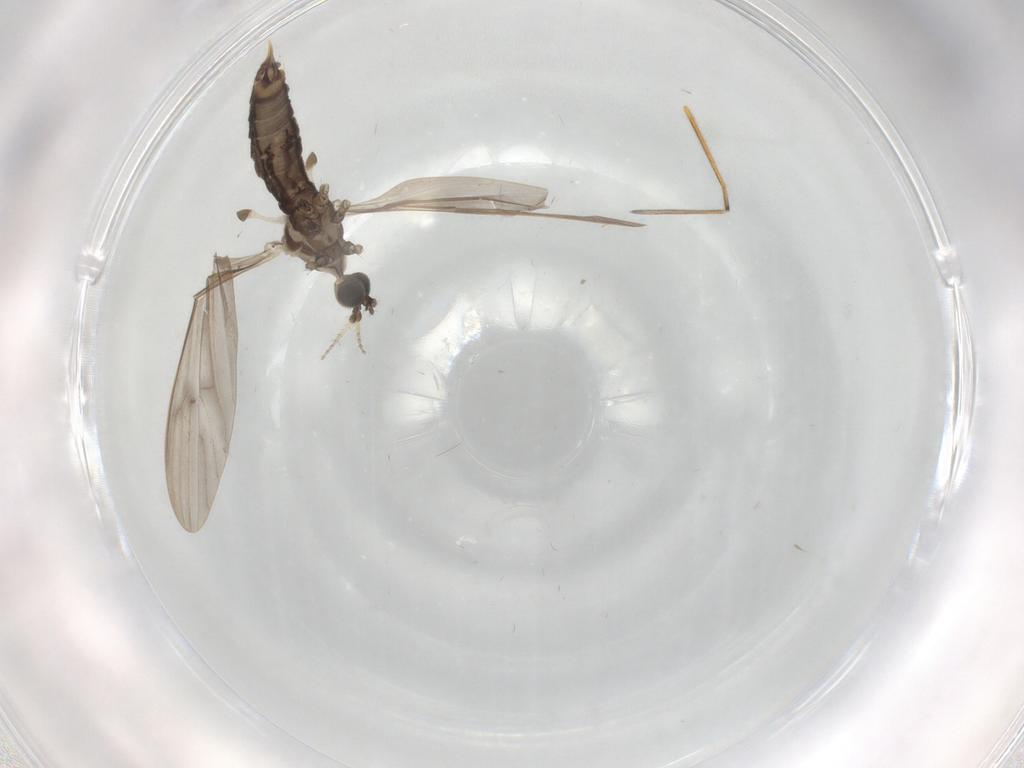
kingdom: Animalia
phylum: Arthropoda
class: Insecta
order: Diptera
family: Limoniidae
